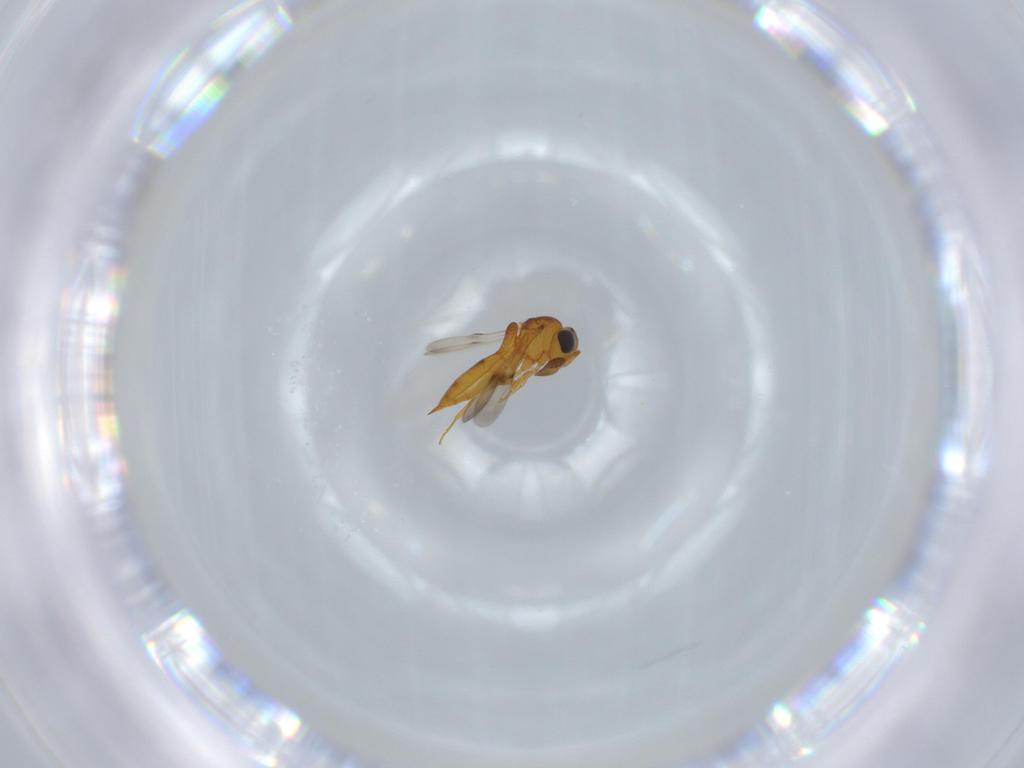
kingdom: Animalia
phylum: Arthropoda
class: Insecta
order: Hymenoptera
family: Scelionidae
